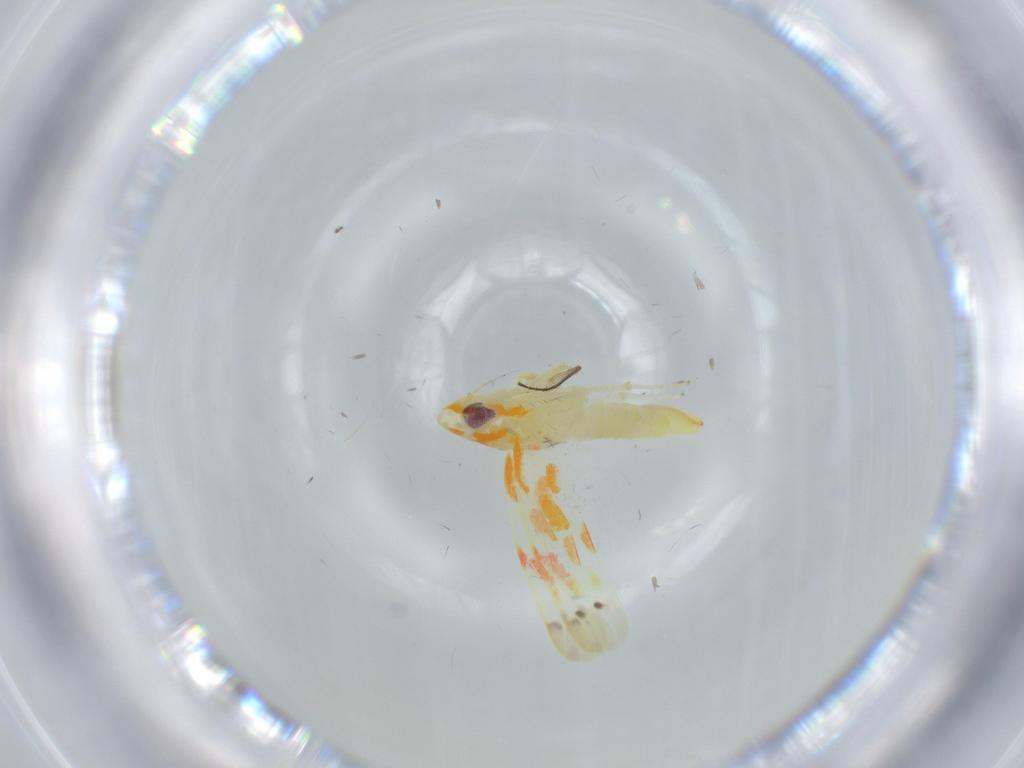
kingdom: Animalia
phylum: Arthropoda
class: Insecta
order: Hemiptera
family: Cicadellidae
